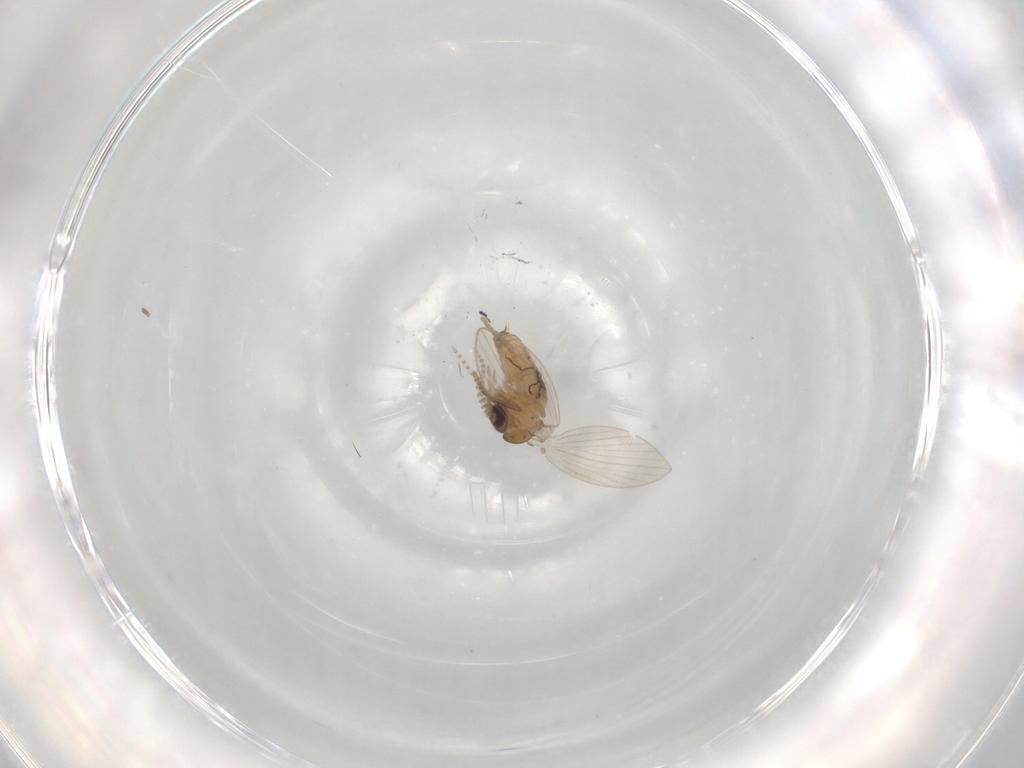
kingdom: Animalia
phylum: Arthropoda
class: Insecta
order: Diptera
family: Psychodidae
